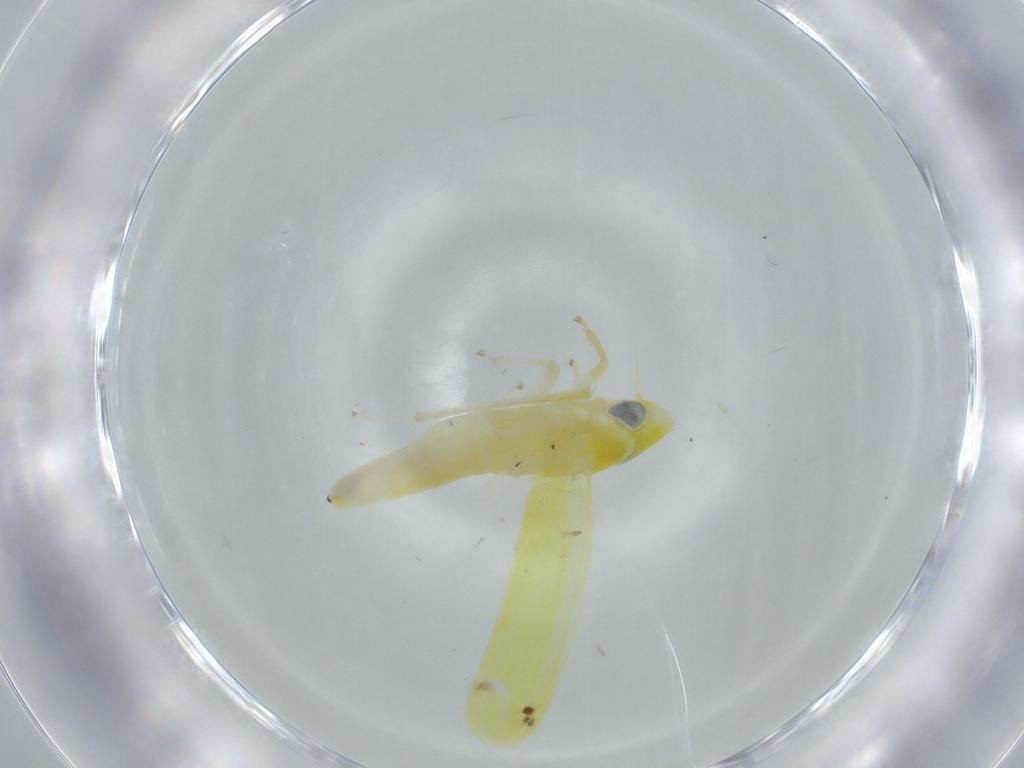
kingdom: Animalia
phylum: Arthropoda
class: Insecta
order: Hemiptera
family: Cicadellidae
